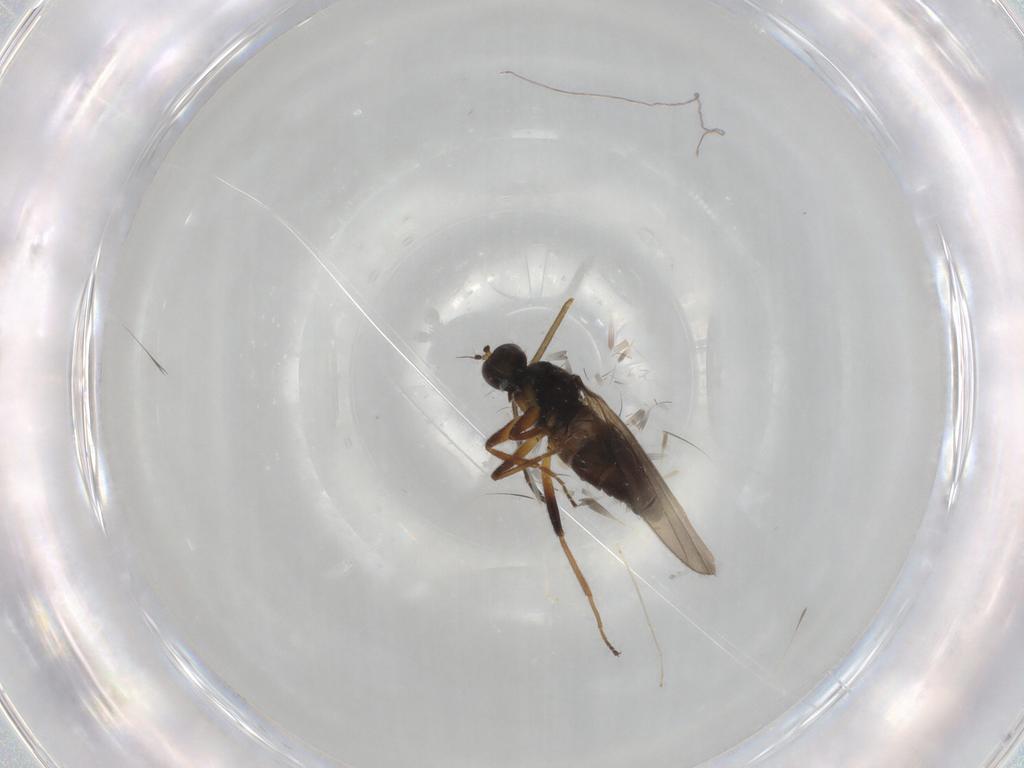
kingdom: Animalia
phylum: Arthropoda
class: Insecta
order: Diptera
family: Hybotidae
